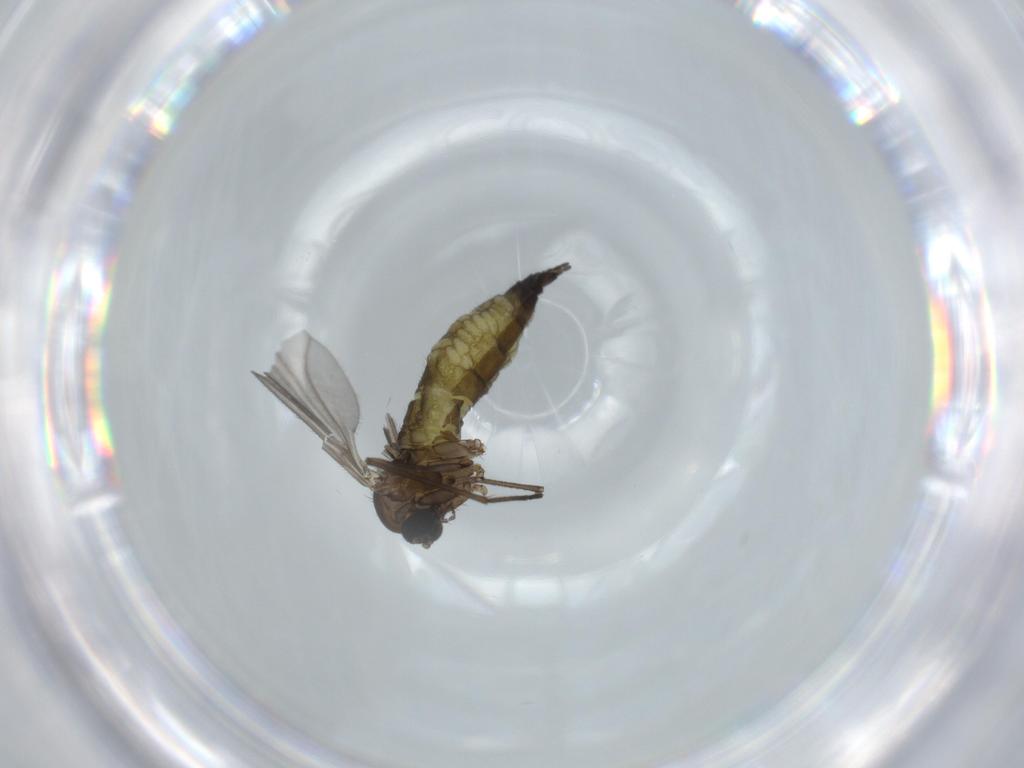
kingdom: Animalia
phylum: Arthropoda
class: Insecta
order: Diptera
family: Sciaridae
